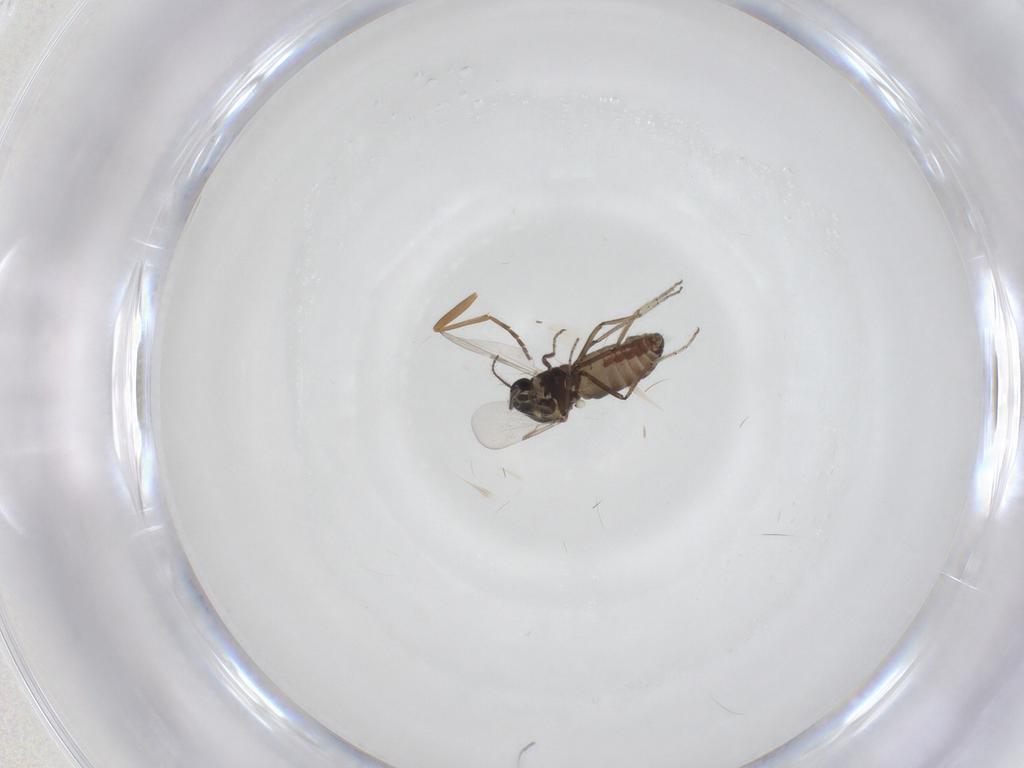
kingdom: Animalia
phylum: Arthropoda
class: Insecta
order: Diptera
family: Ceratopogonidae
